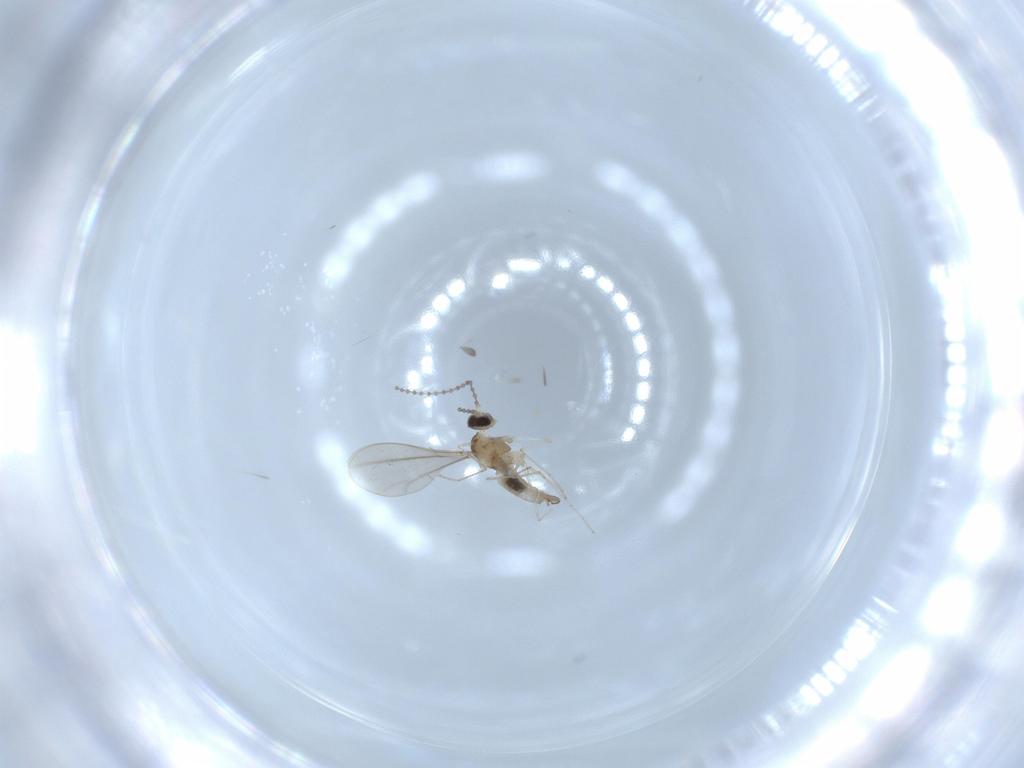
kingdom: Animalia
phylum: Arthropoda
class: Insecta
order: Diptera
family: Cecidomyiidae
